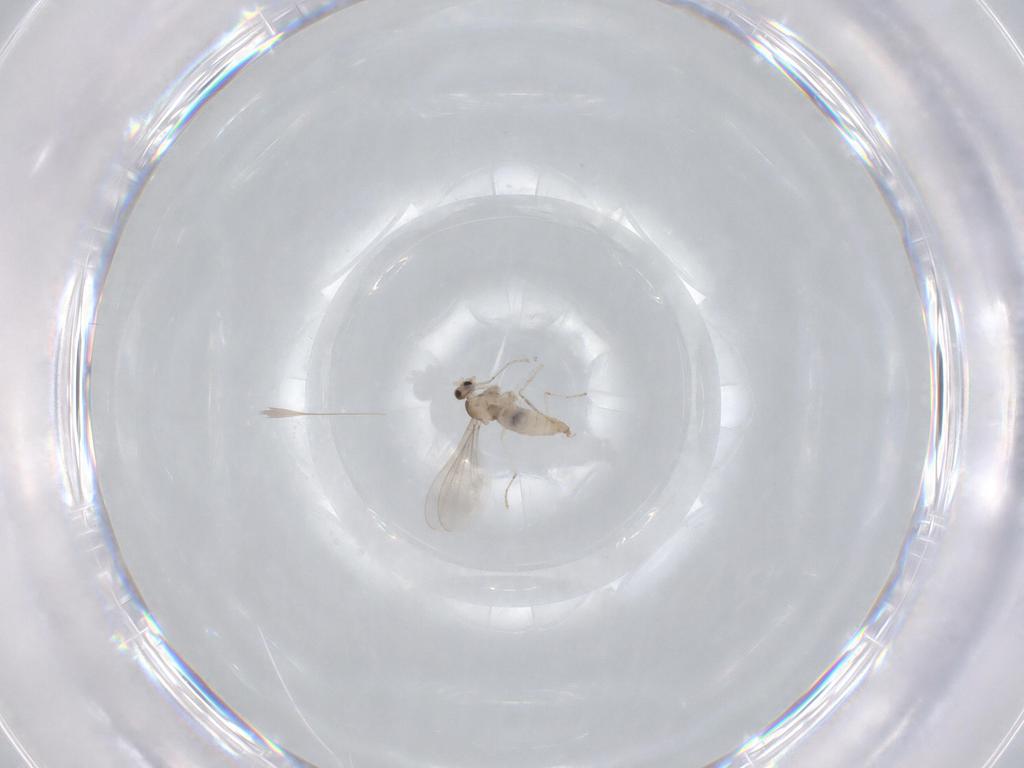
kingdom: Animalia
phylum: Arthropoda
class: Insecta
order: Diptera
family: Cecidomyiidae
